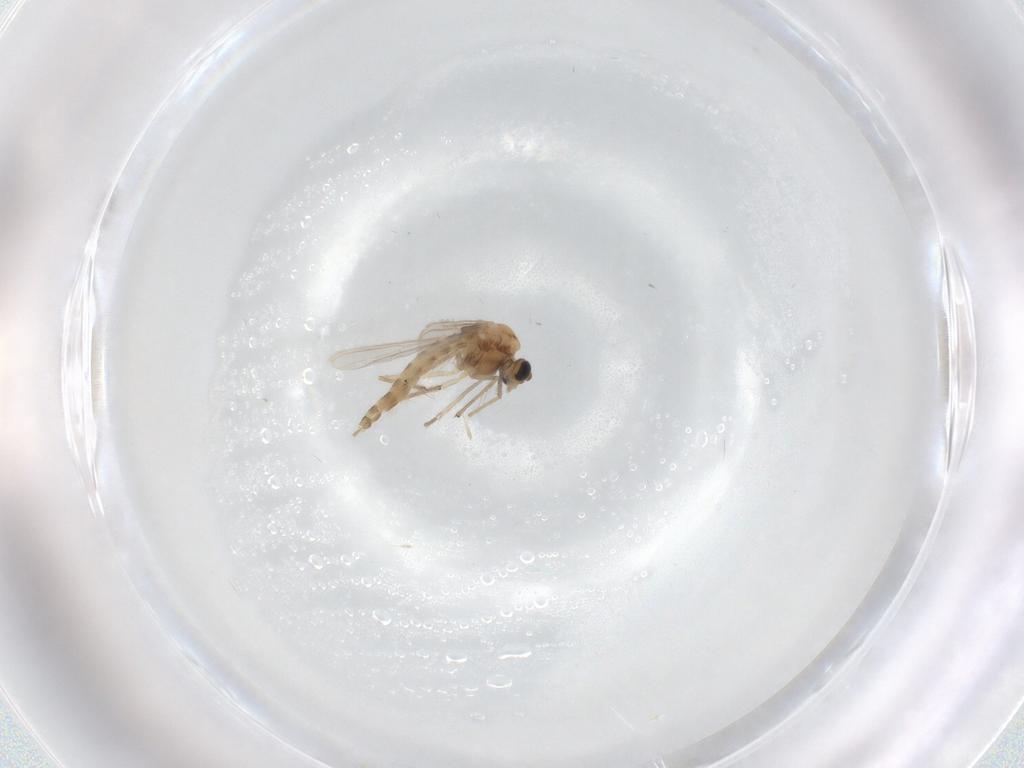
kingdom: Animalia
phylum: Arthropoda
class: Insecta
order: Diptera
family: Chironomidae
